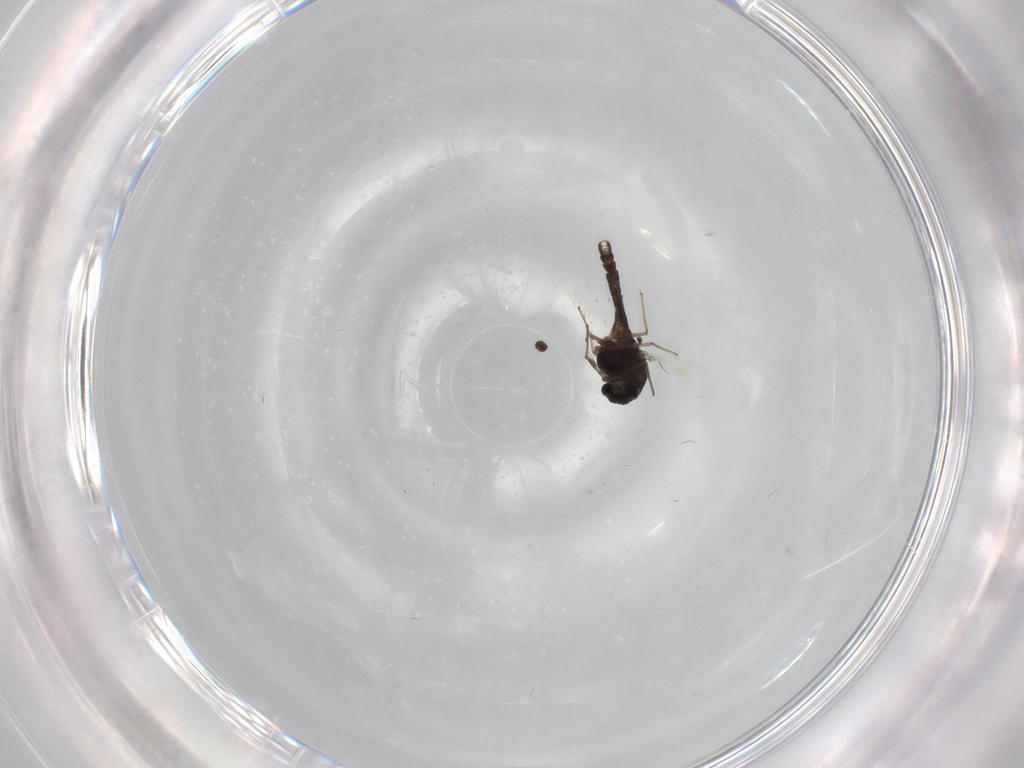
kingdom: Animalia
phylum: Arthropoda
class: Insecta
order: Diptera
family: Chironomidae
